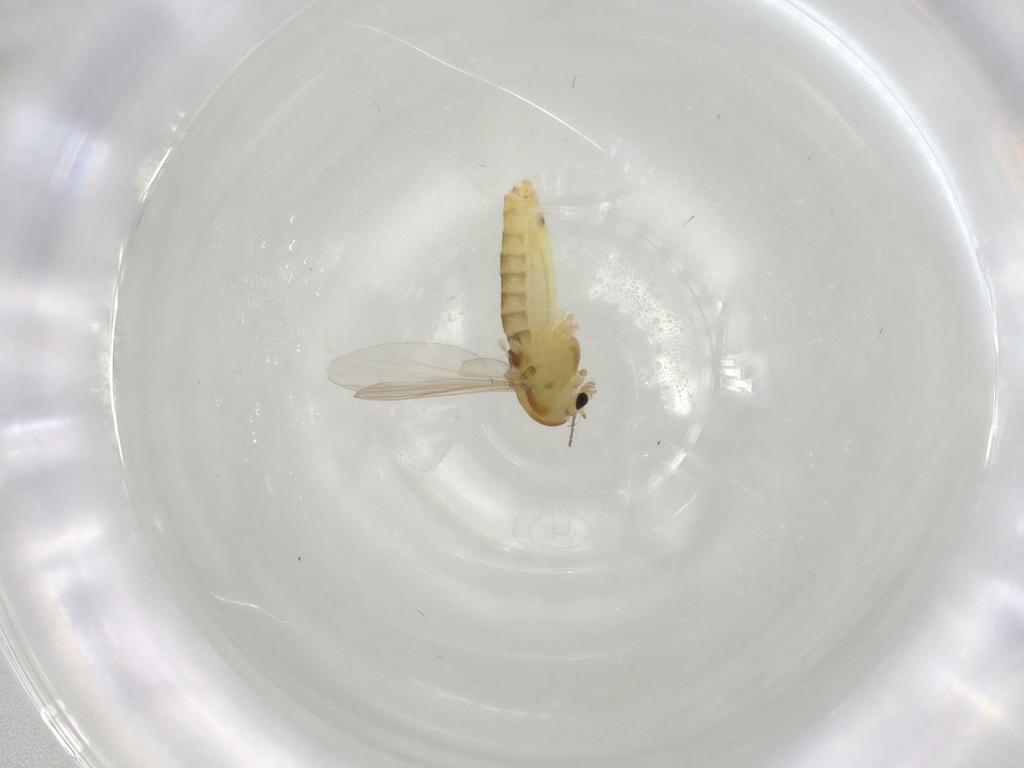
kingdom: Animalia
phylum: Arthropoda
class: Insecta
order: Diptera
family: Chironomidae
